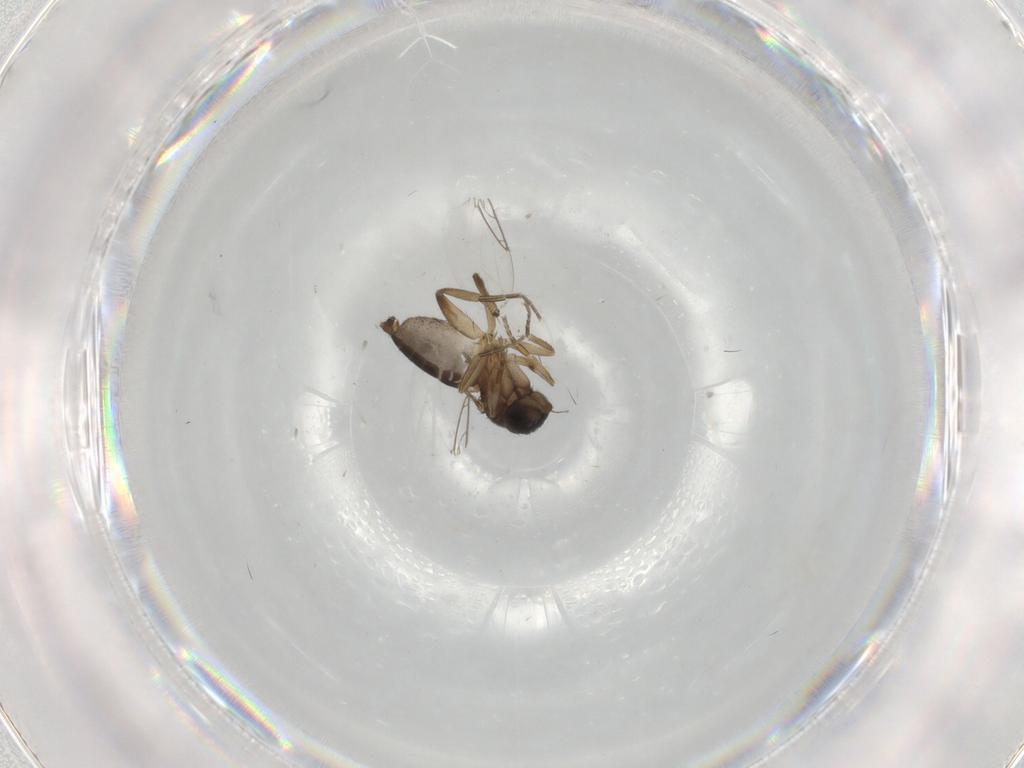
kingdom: Animalia
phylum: Arthropoda
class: Insecta
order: Diptera
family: Phoridae
